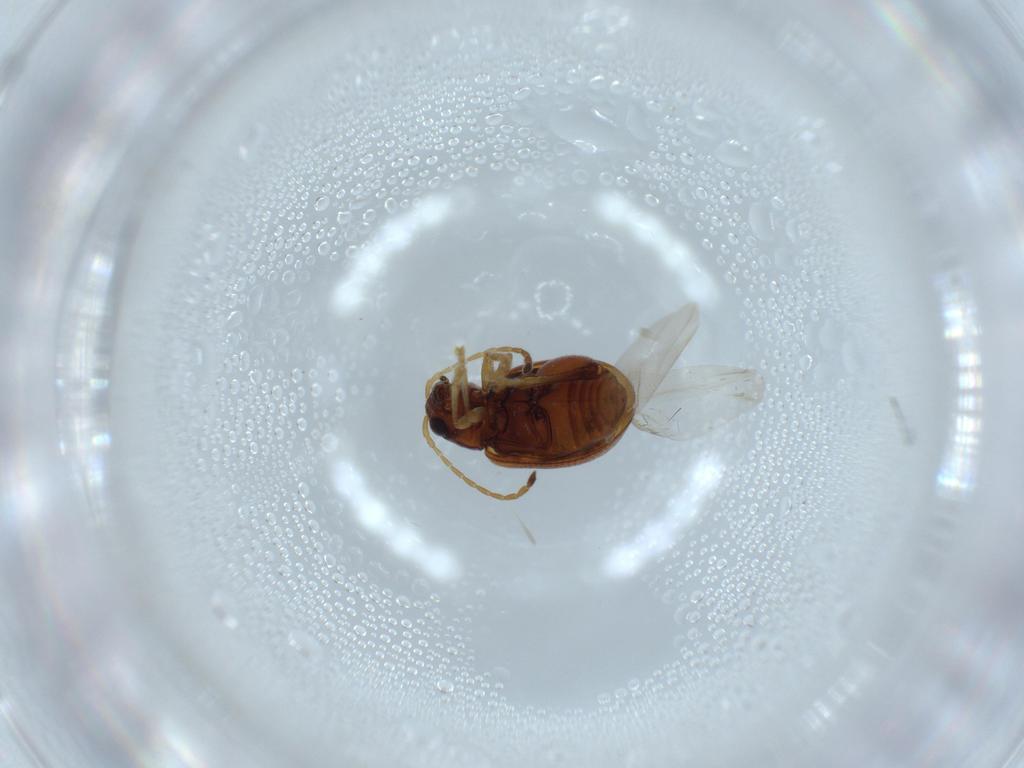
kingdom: Animalia
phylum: Arthropoda
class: Insecta
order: Coleoptera
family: Chrysomelidae
